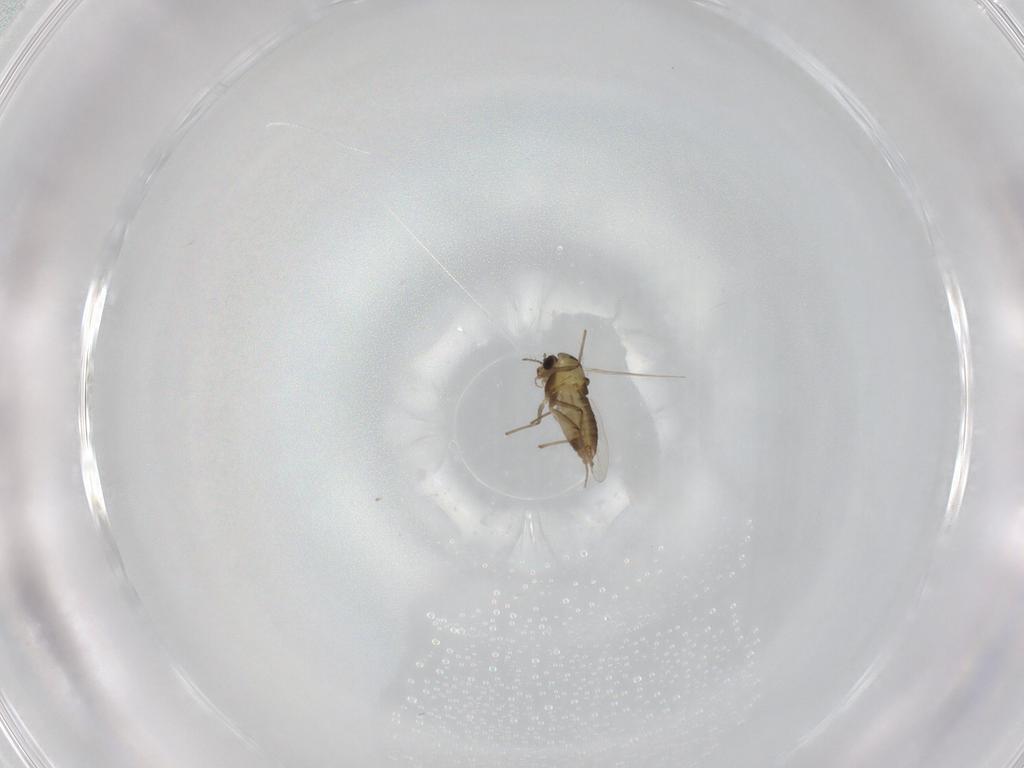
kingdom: Animalia
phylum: Arthropoda
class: Insecta
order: Diptera
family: Chironomidae
